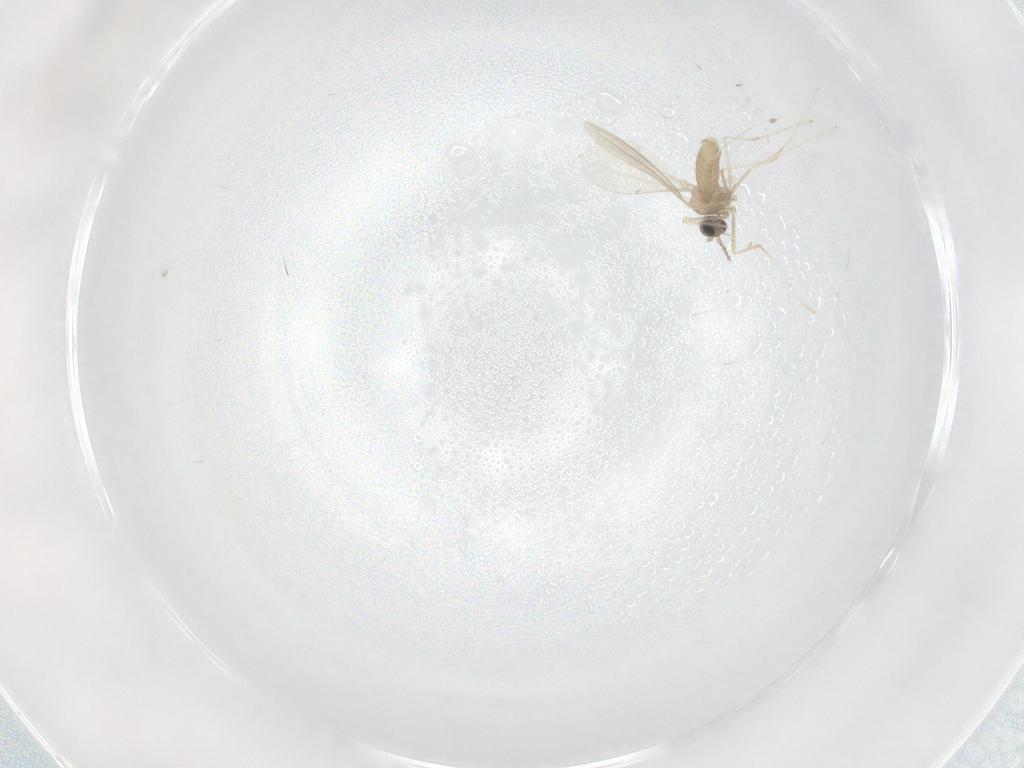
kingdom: Animalia
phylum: Arthropoda
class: Insecta
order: Diptera
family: Cecidomyiidae
